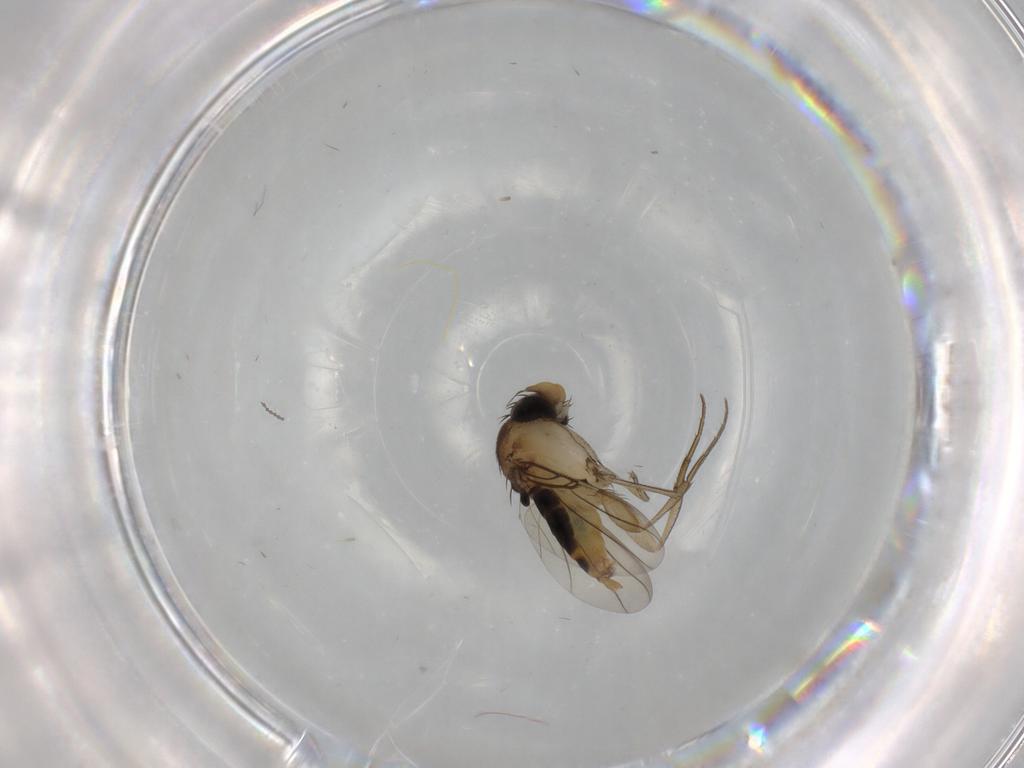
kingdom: Animalia
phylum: Arthropoda
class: Insecta
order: Diptera
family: Phoridae
